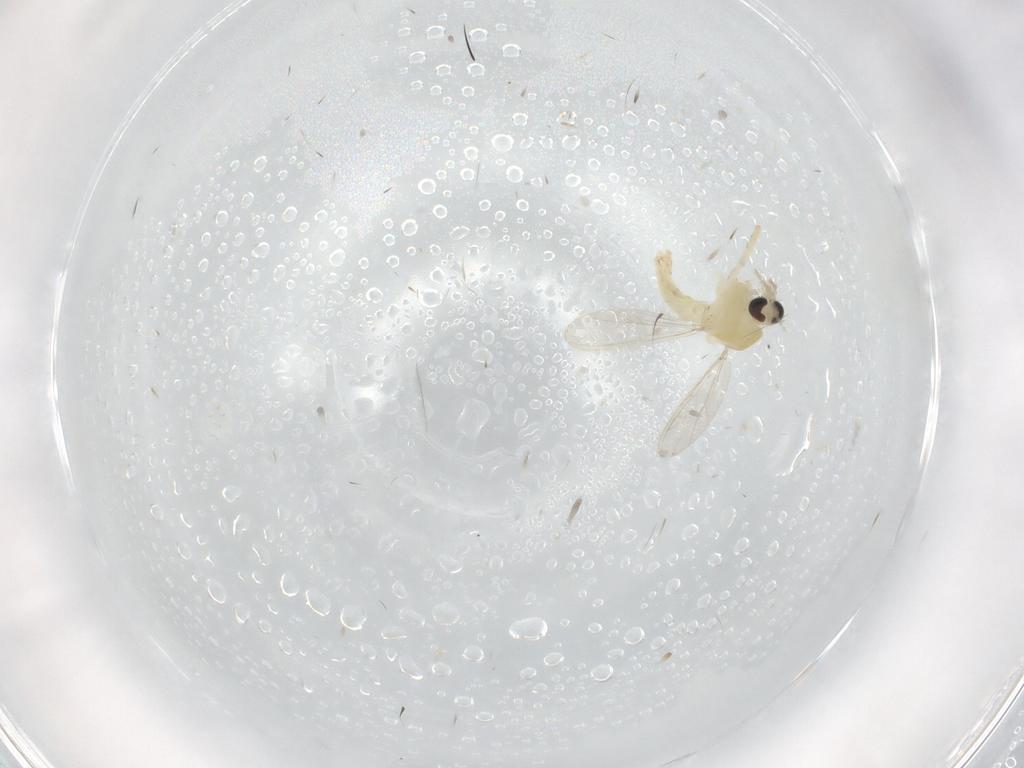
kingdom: Animalia
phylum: Arthropoda
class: Insecta
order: Diptera
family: Chironomidae
